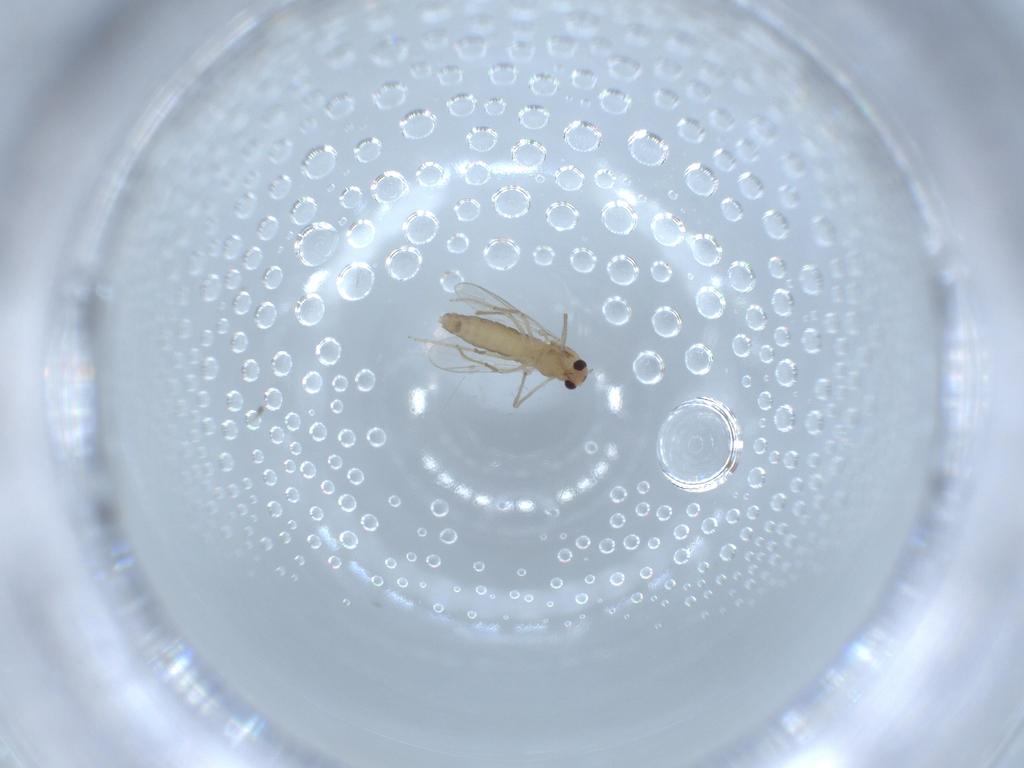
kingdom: Animalia
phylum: Arthropoda
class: Insecta
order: Diptera
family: Chironomidae
